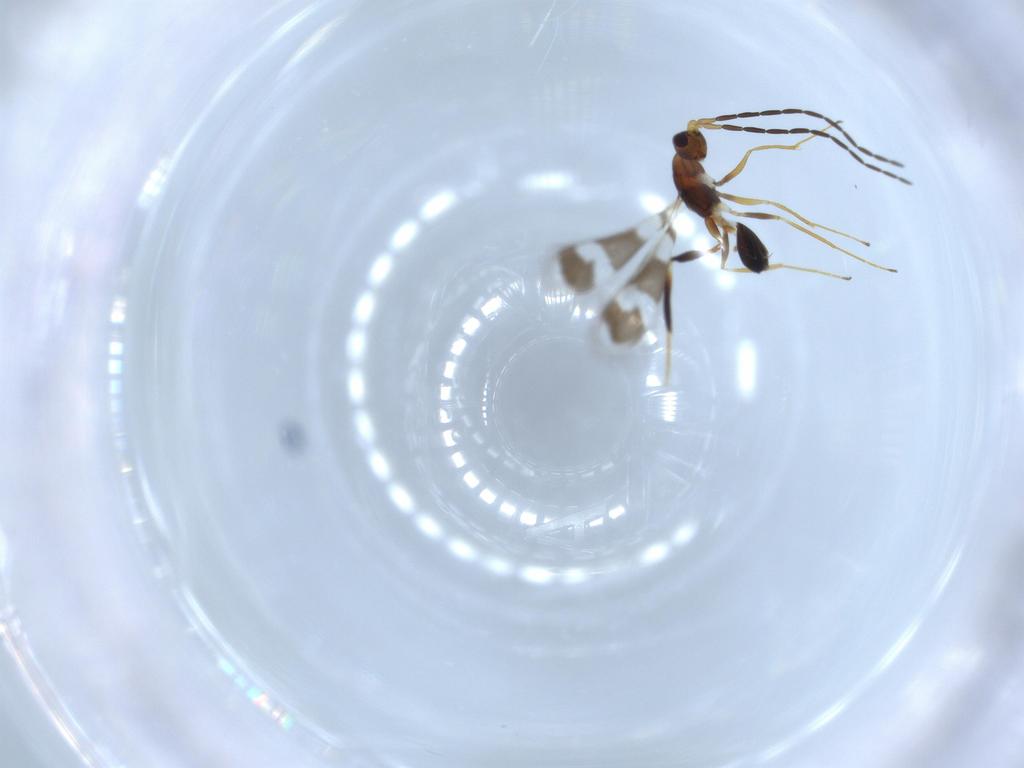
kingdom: Animalia
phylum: Arthropoda
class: Insecta
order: Hymenoptera
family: Mymaridae
